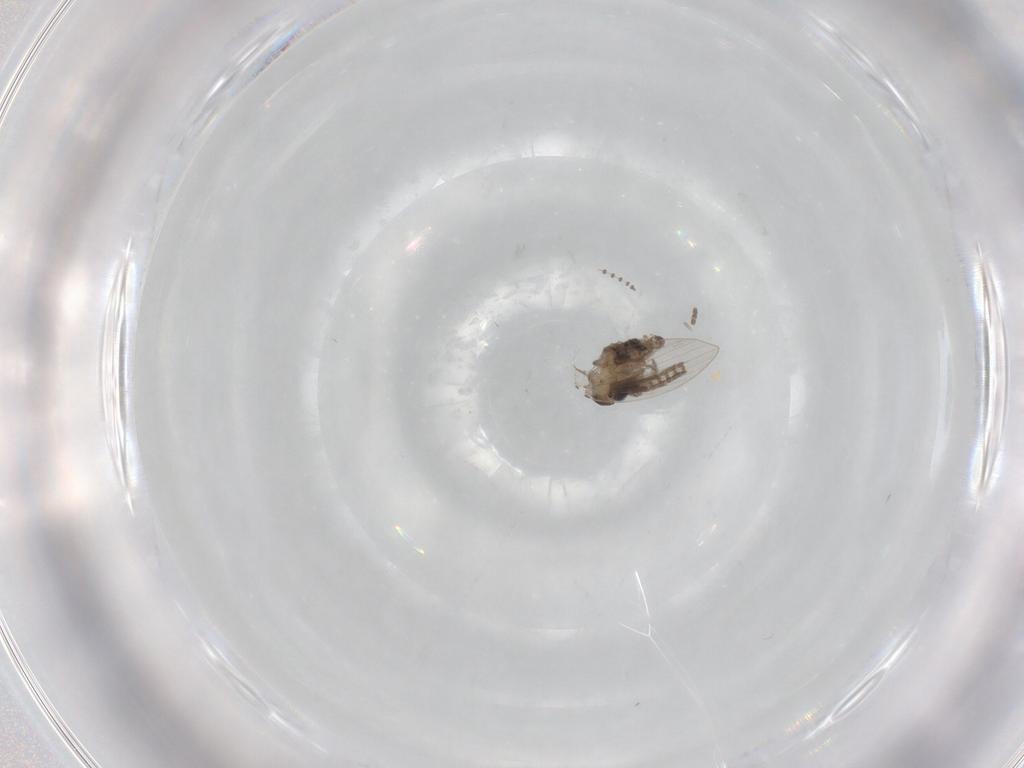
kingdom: Animalia
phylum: Arthropoda
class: Insecta
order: Diptera
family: Psychodidae
